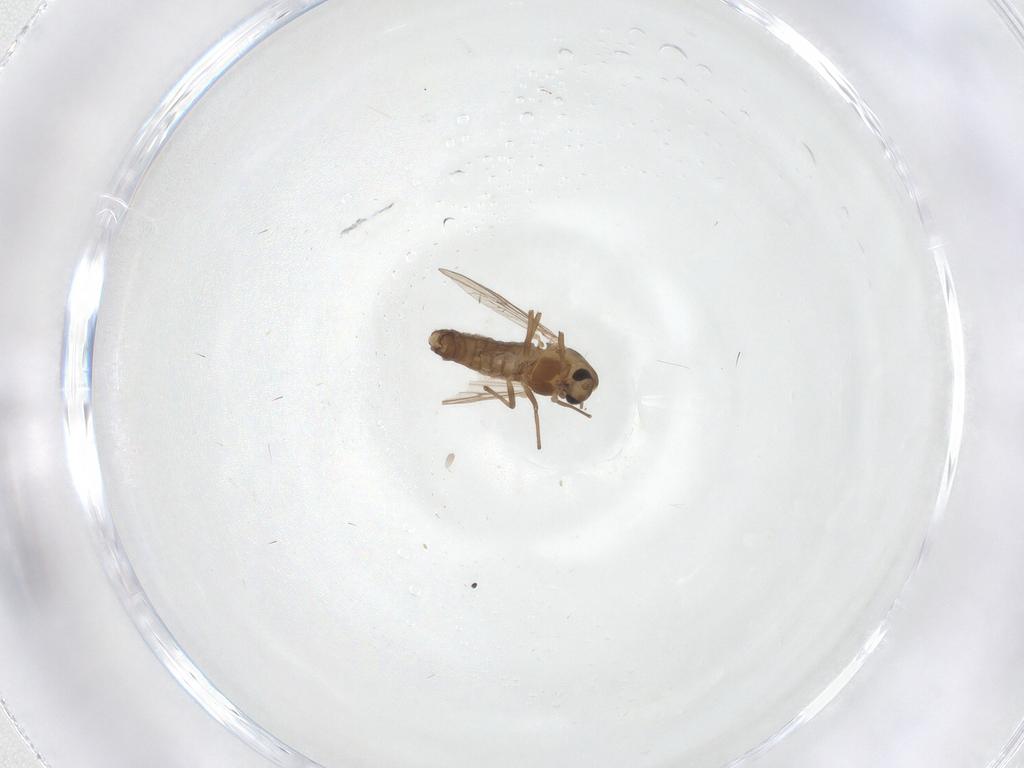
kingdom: Animalia
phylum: Arthropoda
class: Insecta
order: Diptera
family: Chironomidae
